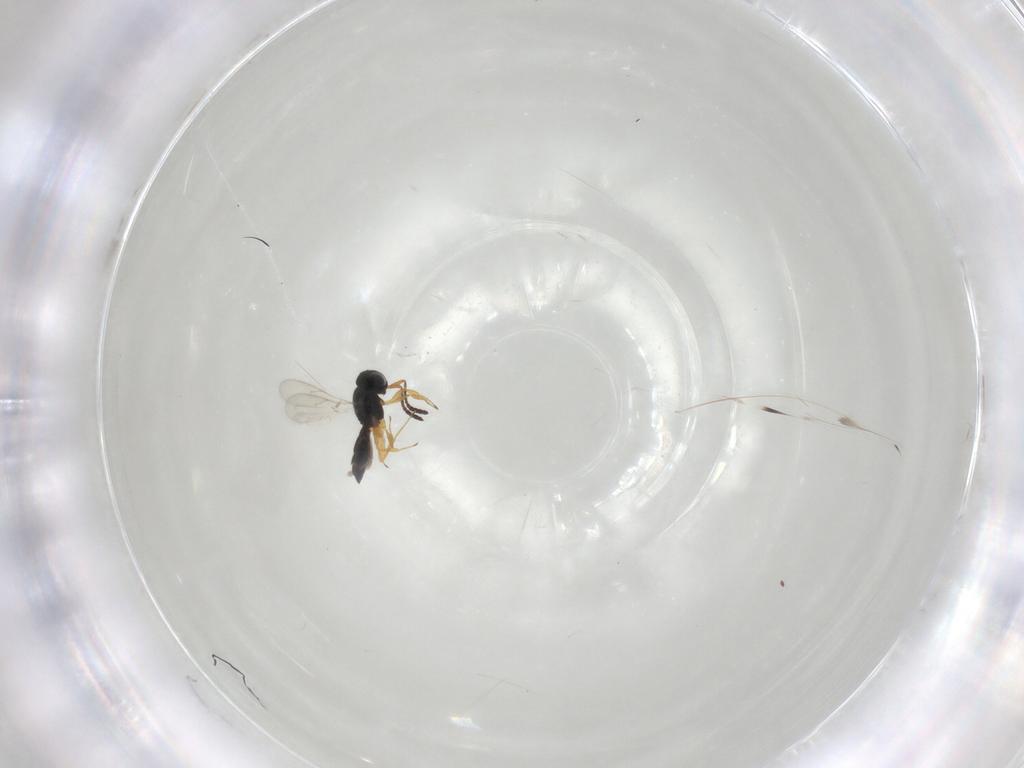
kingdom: Animalia
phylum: Arthropoda
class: Insecta
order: Hymenoptera
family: Scelionidae
